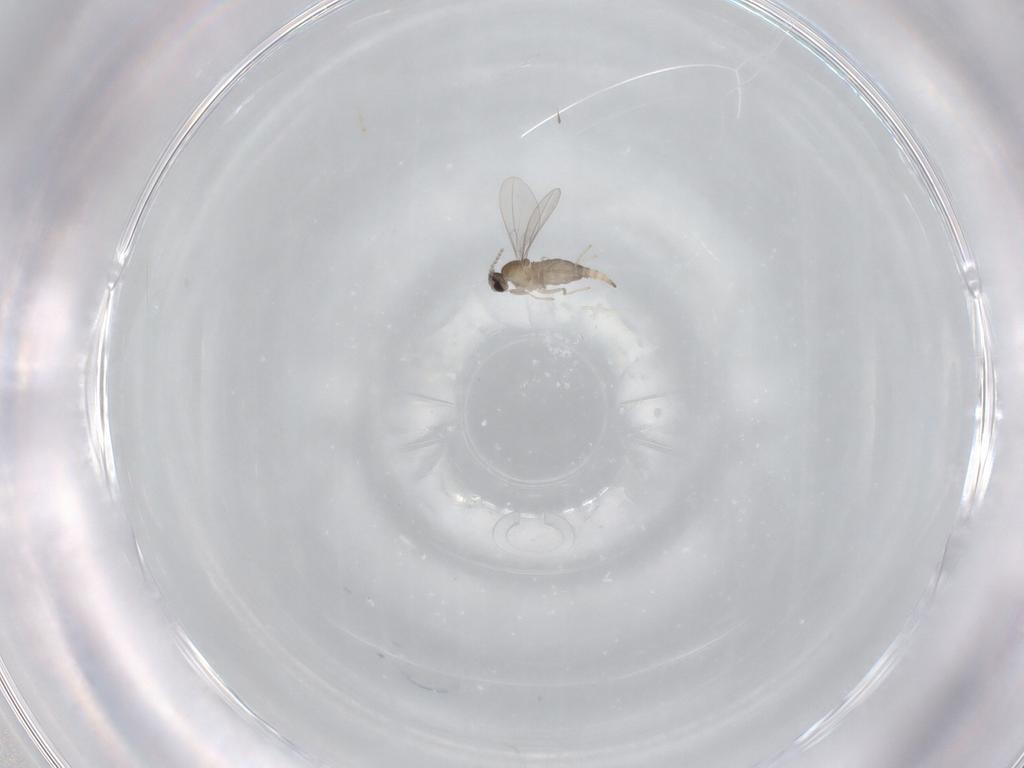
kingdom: Animalia
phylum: Arthropoda
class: Insecta
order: Diptera
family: Cecidomyiidae
